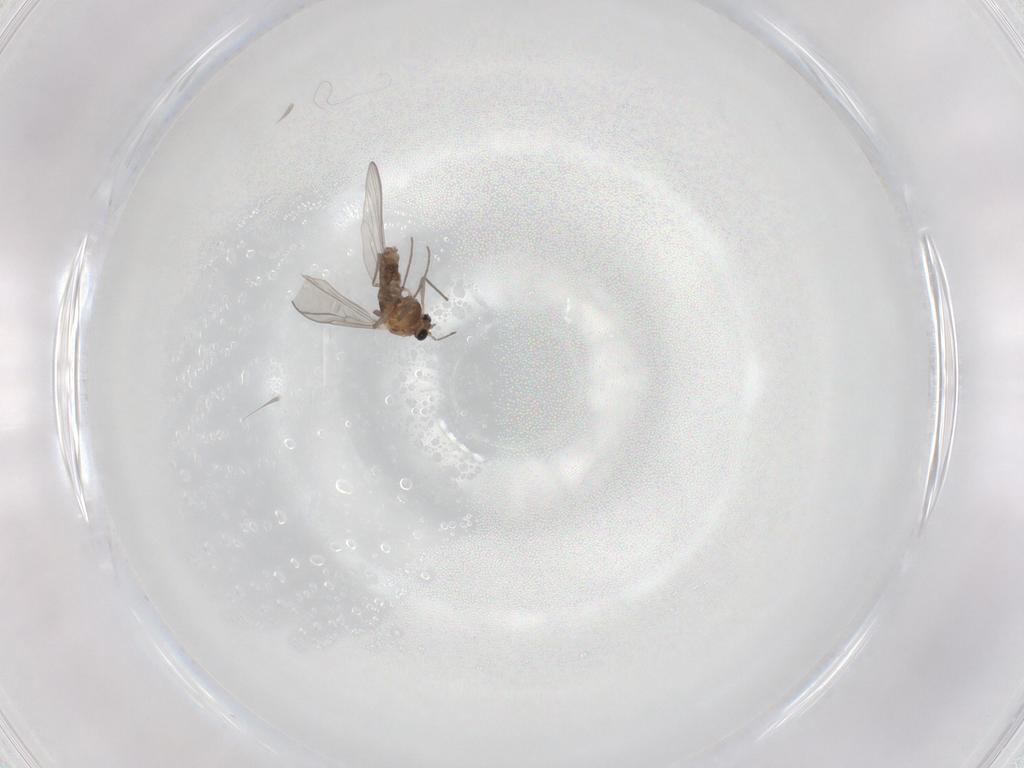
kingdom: Animalia
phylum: Arthropoda
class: Insecta
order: Diptera
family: Chironomidae
